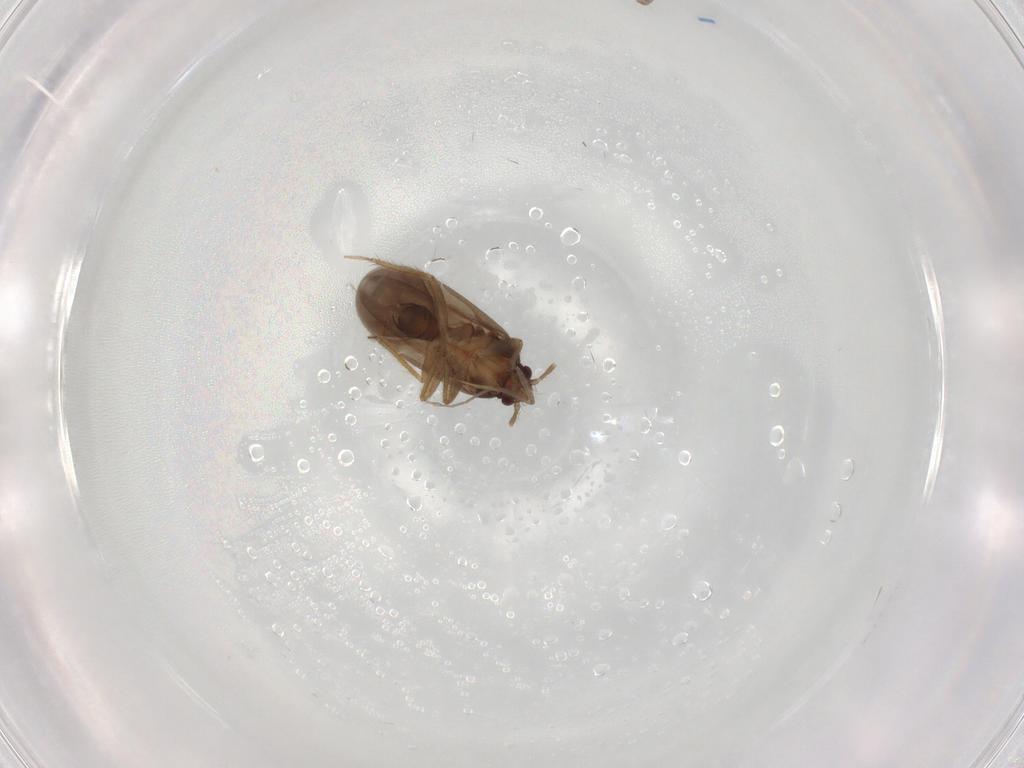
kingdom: Animalia
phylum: Arthropoda
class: Insecta
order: Hemiptera
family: Ceratocombidae
